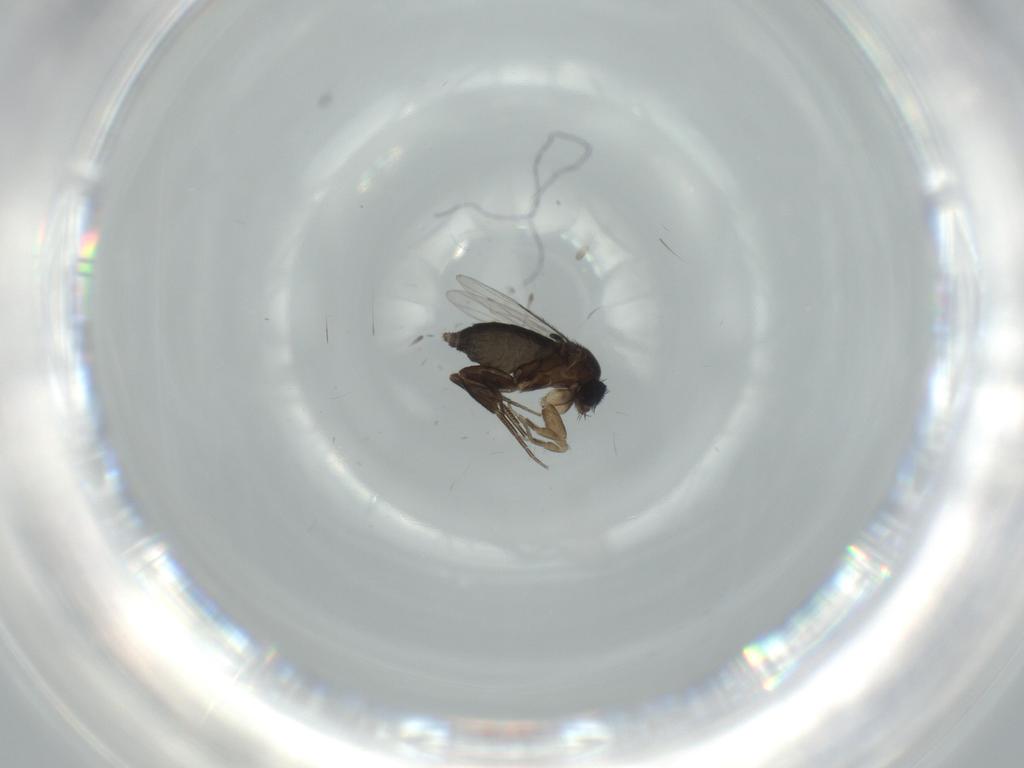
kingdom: Animalia
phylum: Arthropoda
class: Insecta
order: Diptera
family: Phoridae
